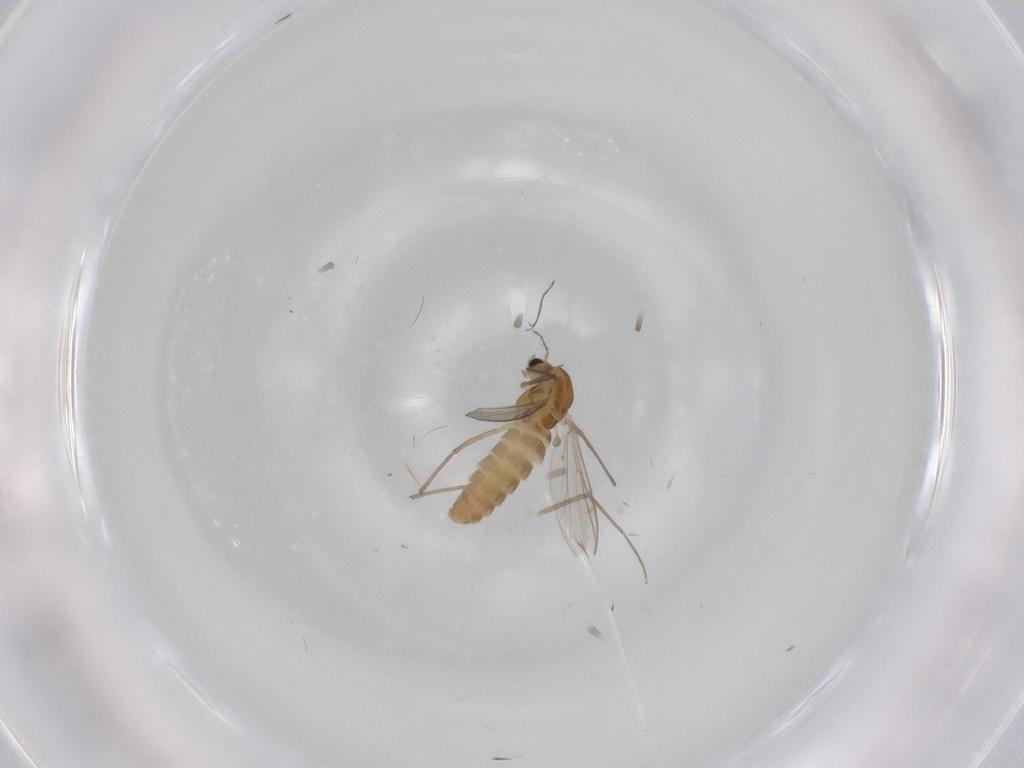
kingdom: Animalia
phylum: Arthropoda
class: Insecta
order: Diptera
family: Chironomidae
